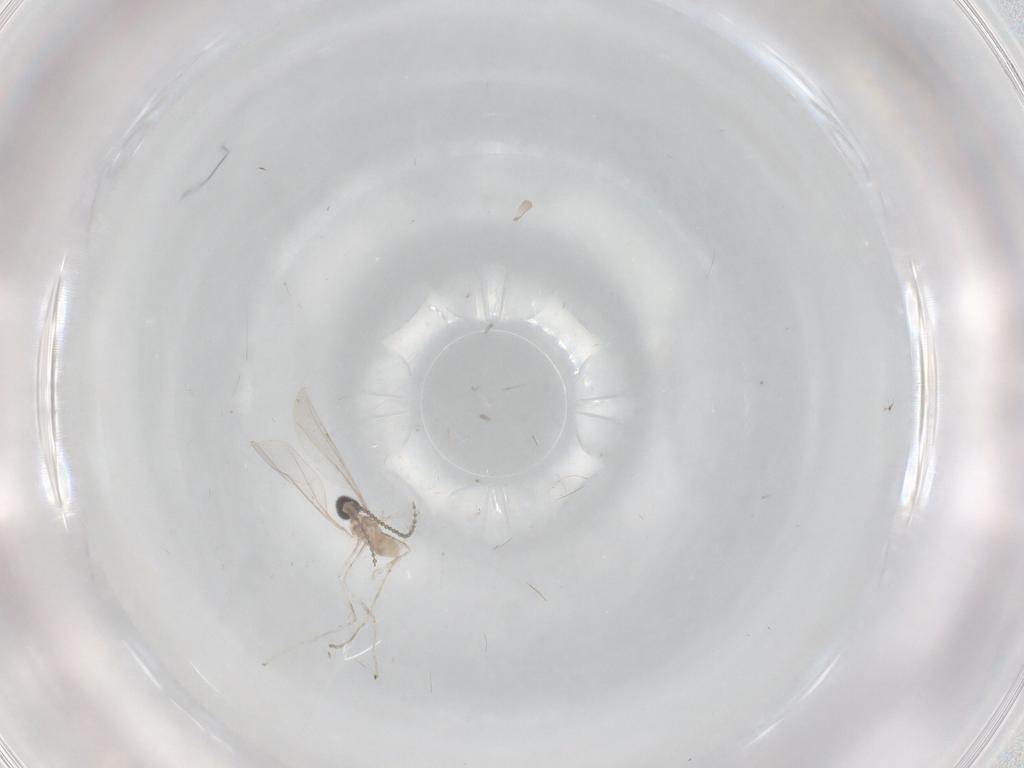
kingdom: Animalia
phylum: Arthropoda
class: Insecta
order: Diptera
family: Cecidomyiidae
